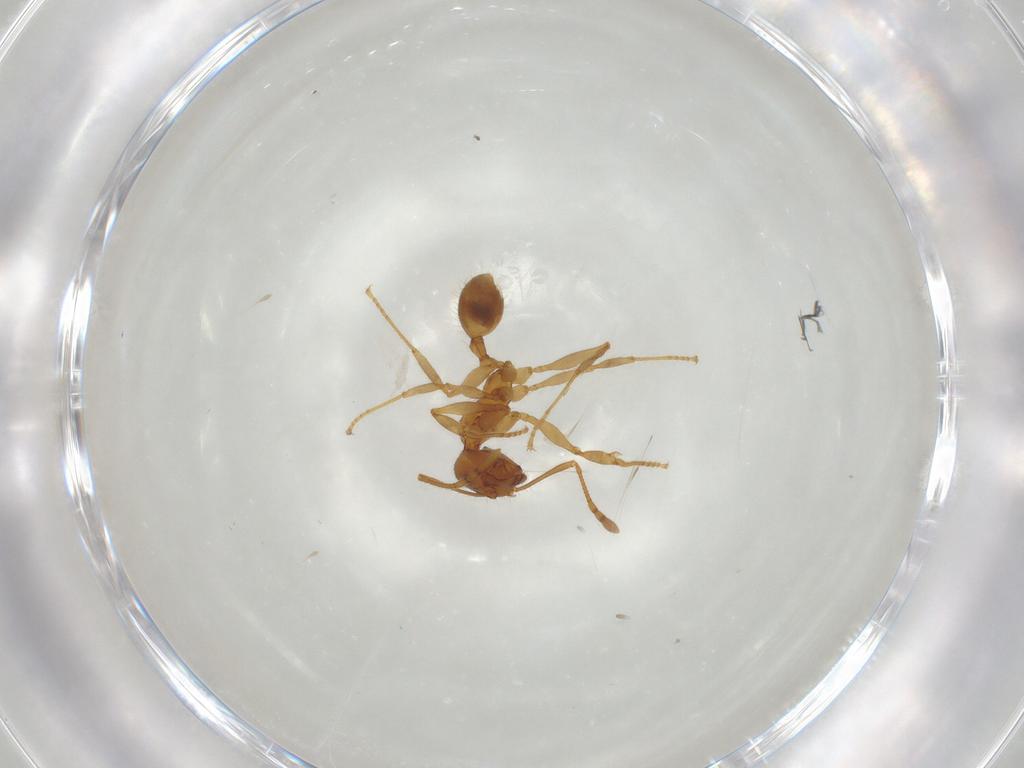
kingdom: Animalia
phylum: Arthropoda
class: Insecta
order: Hymenoptera
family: Formicidae
